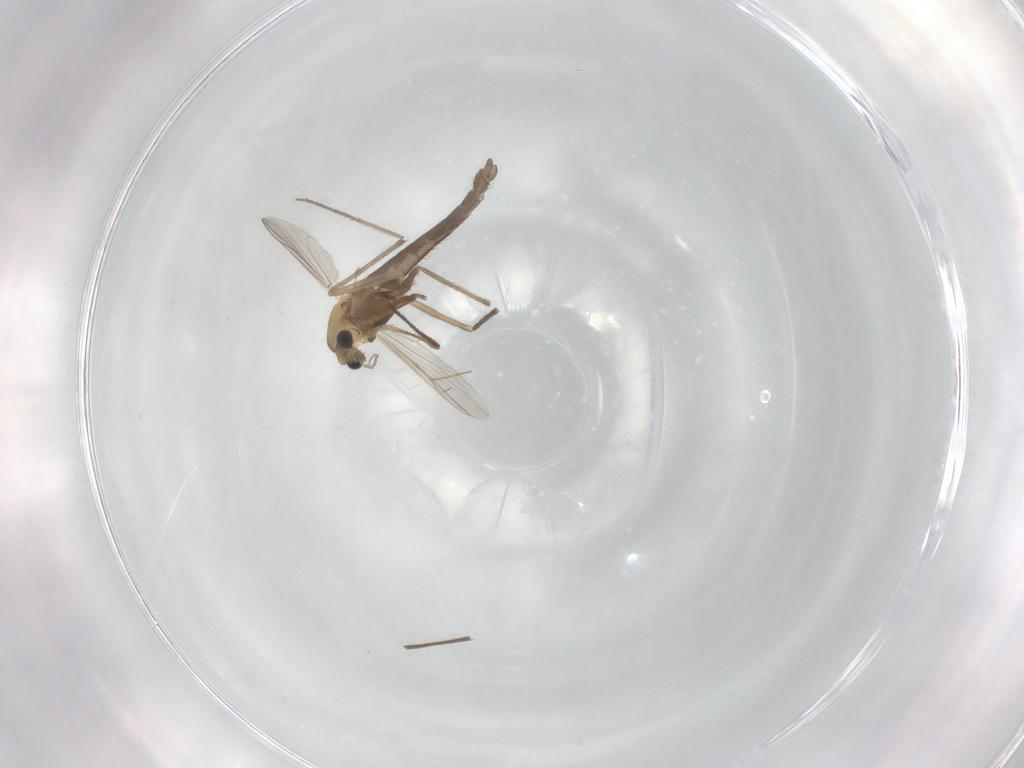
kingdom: Animalia
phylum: Arthropoda
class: Insecta
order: Diptera
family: Chironomidae
